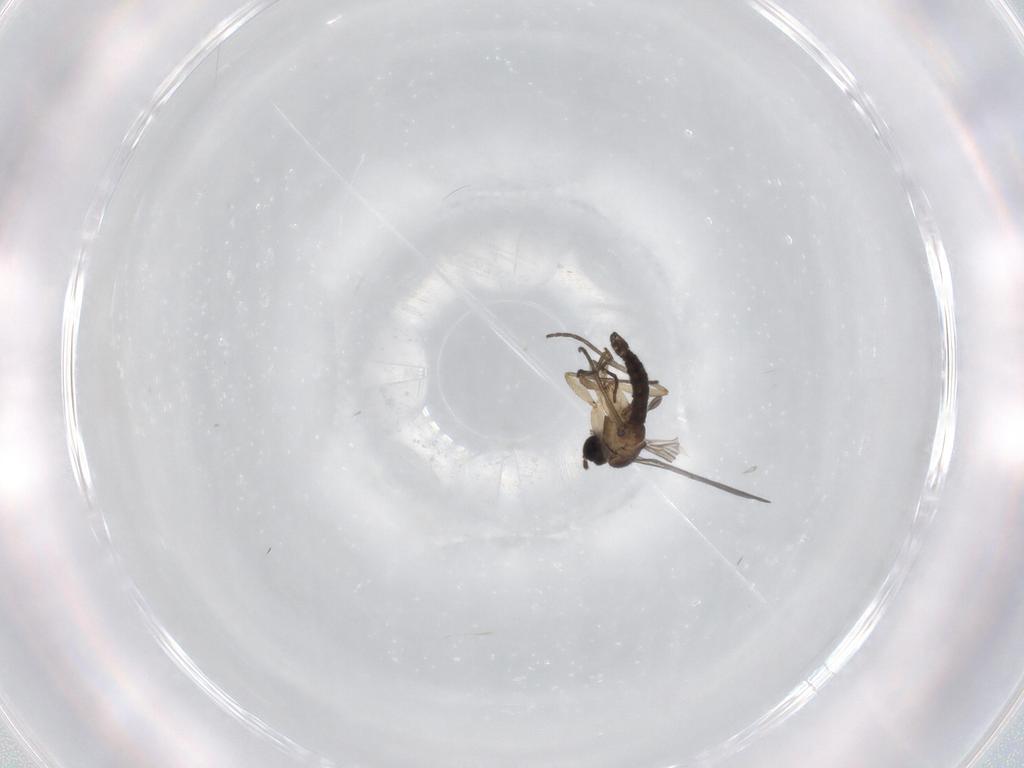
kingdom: Animalia
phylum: Arthropoda
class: Insecta
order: Diptera
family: Sciaridae
